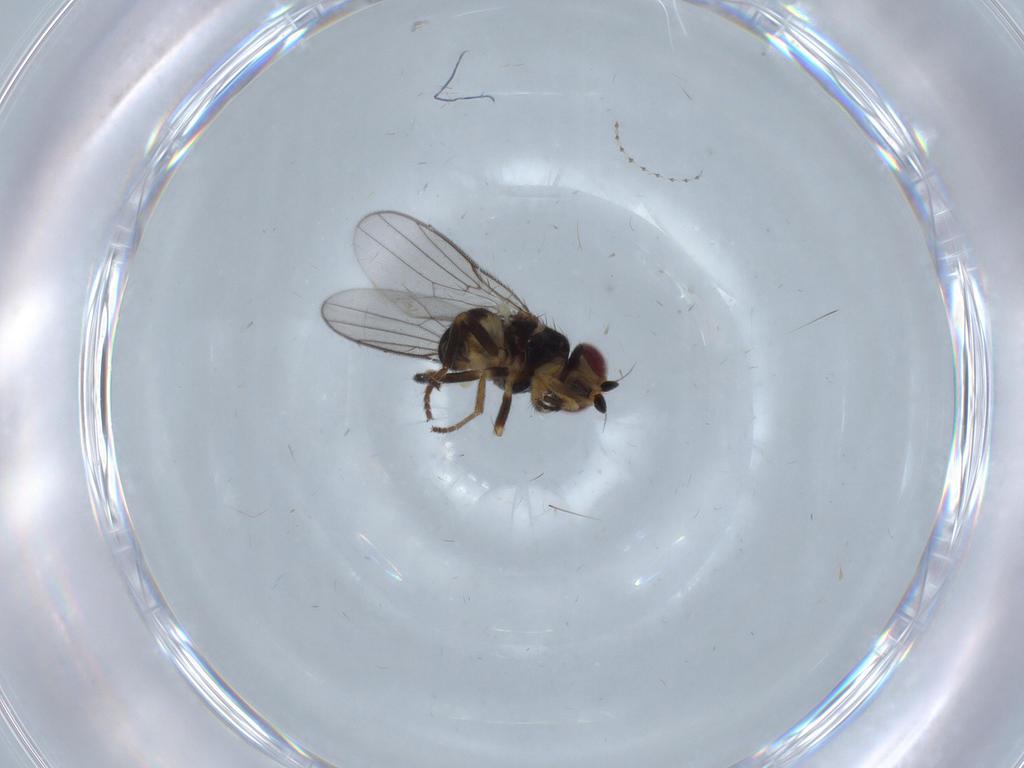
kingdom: Animalia
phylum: Arthropoda
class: Insecta
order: Diptera
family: Chloropidae
